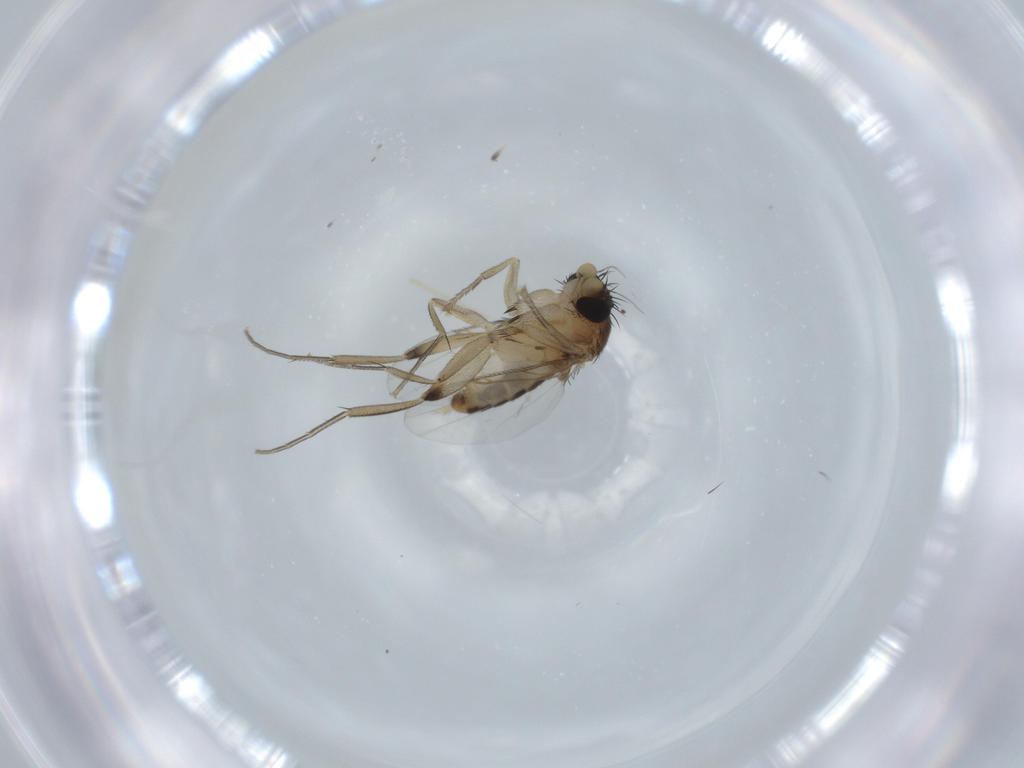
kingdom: Animalia
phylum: Arthropoda
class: Insecta
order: Diptera
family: Phoridae
